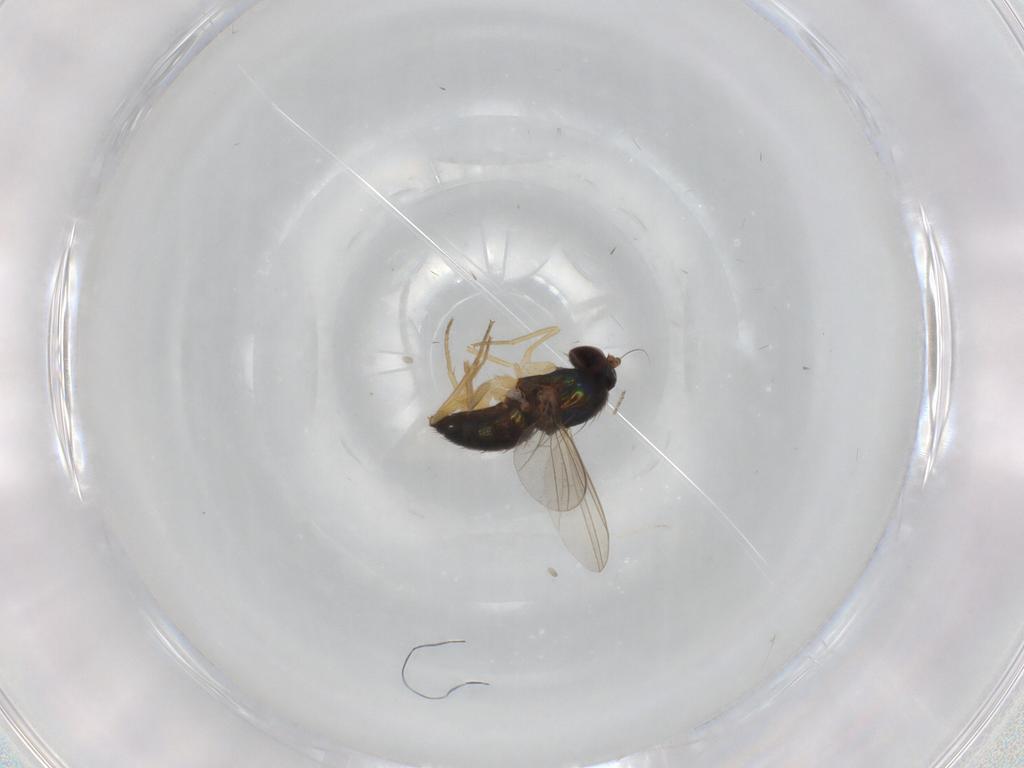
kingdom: Animalia
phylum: Arthropoda
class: Insecta
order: Diptera
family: Dolichopodidae
